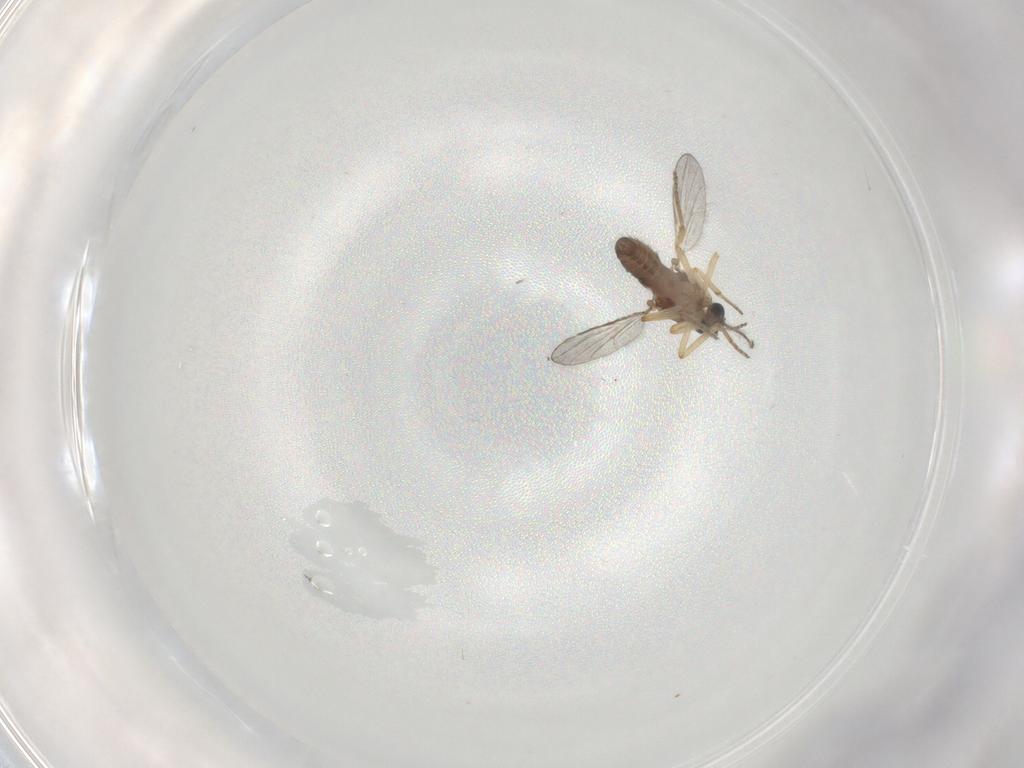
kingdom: Animalia
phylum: Arthropoda
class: Insecta
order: Diptera
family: Ceratopogonidae
